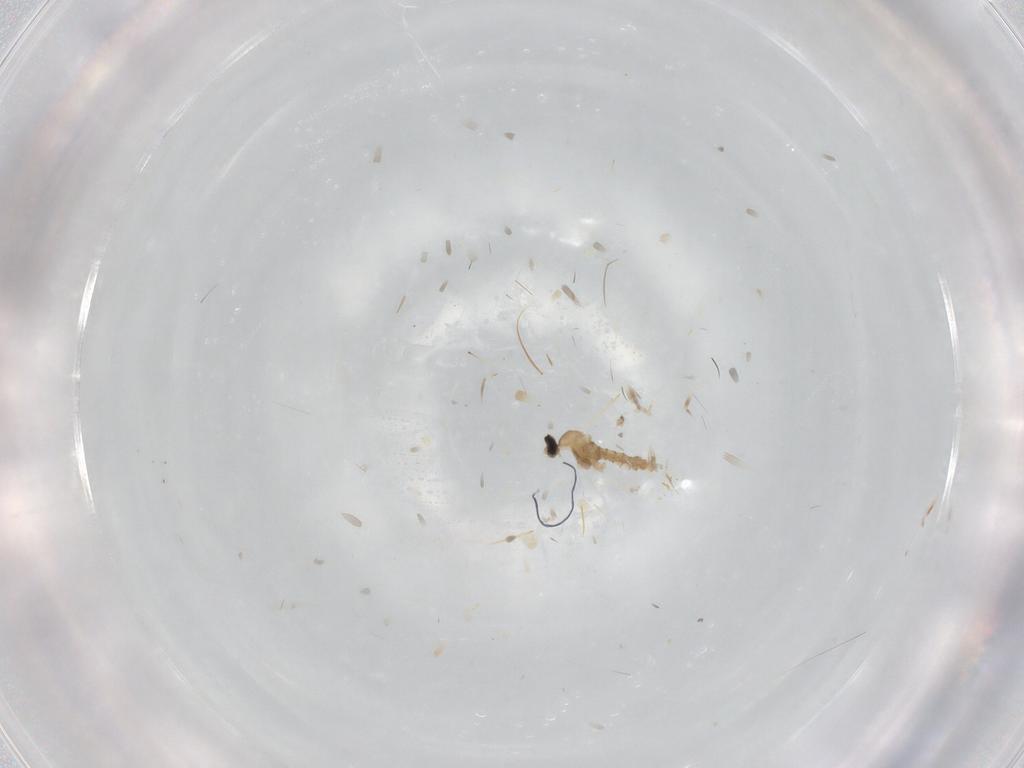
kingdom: Animalia
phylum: Arthropoda
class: Insecta
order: Diptera
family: Cecidomyiidae
